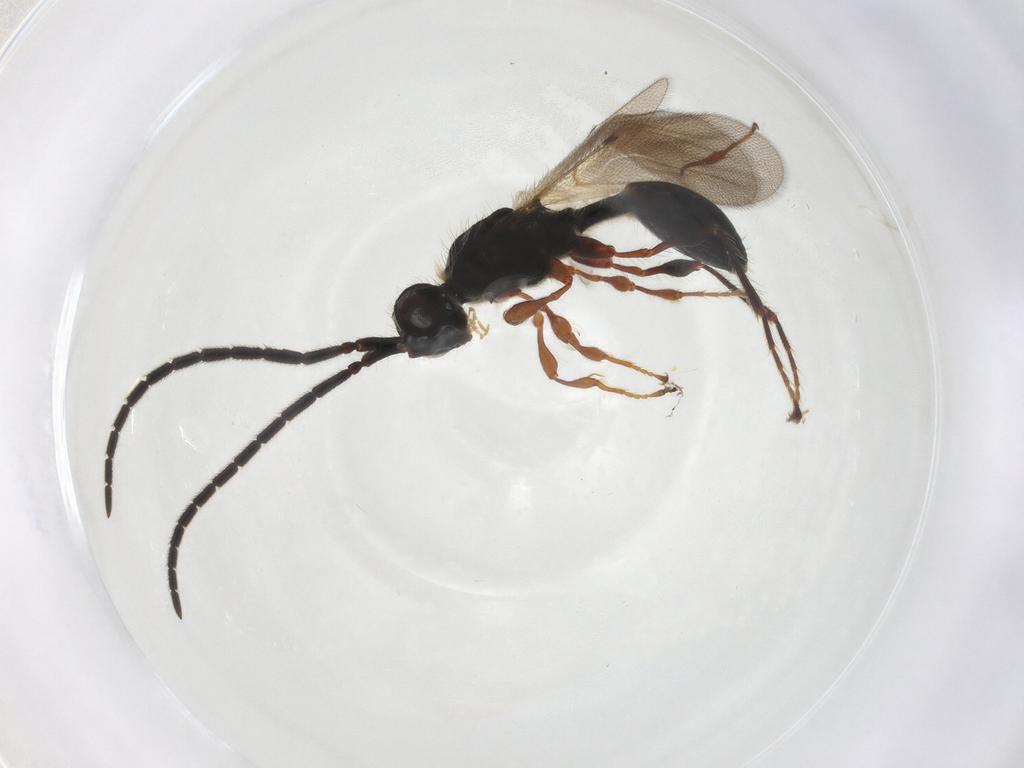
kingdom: Animalia
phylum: Arthropoda
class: Insecta
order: Hymenoptera
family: Diapriidae
